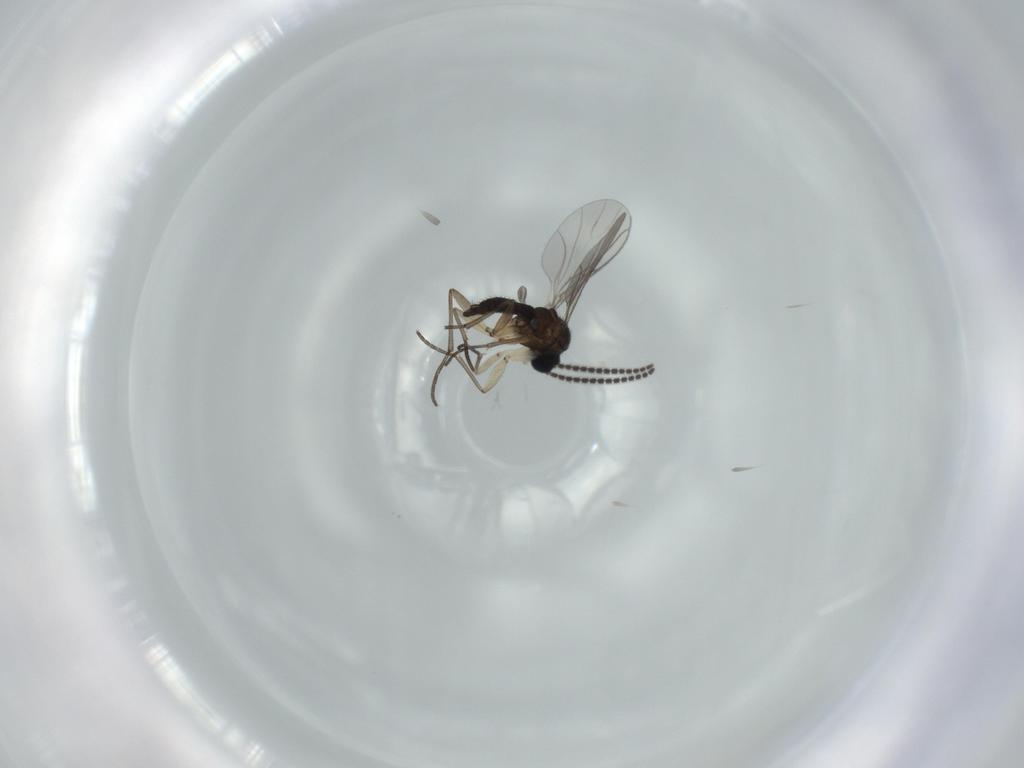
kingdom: Animalia
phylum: Arthropoda
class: Insecta
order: Diptera
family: Sciaridae
